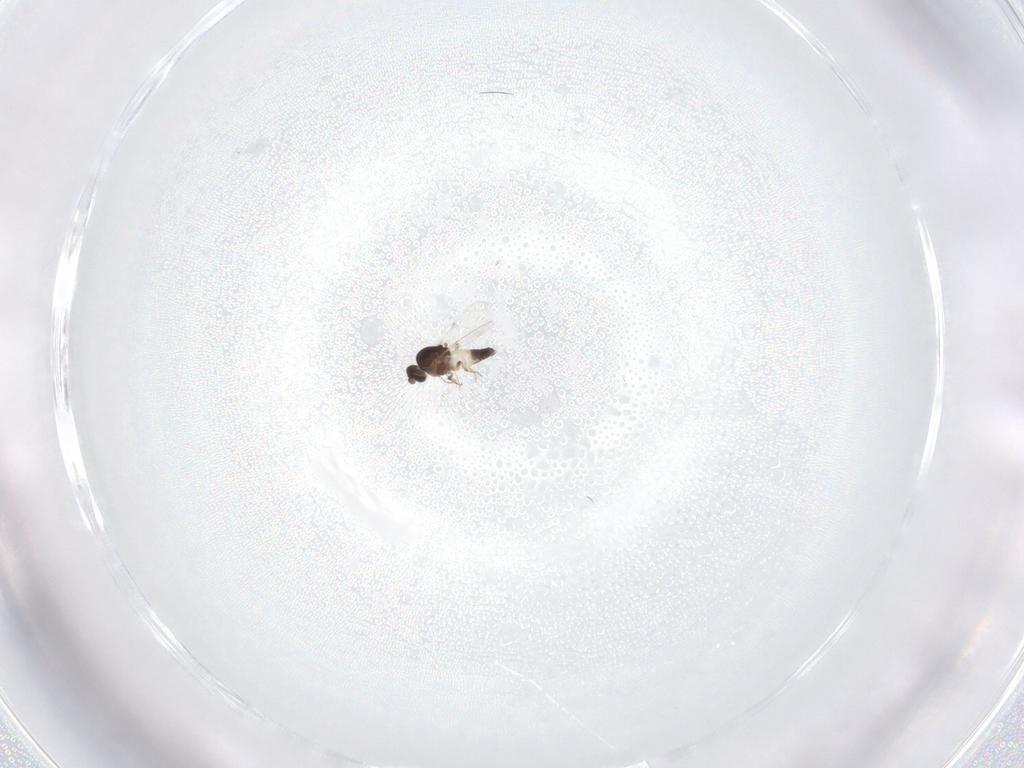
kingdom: Animalia
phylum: Arthropoda
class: Insecta
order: Diptera
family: Ceratopogonidae
